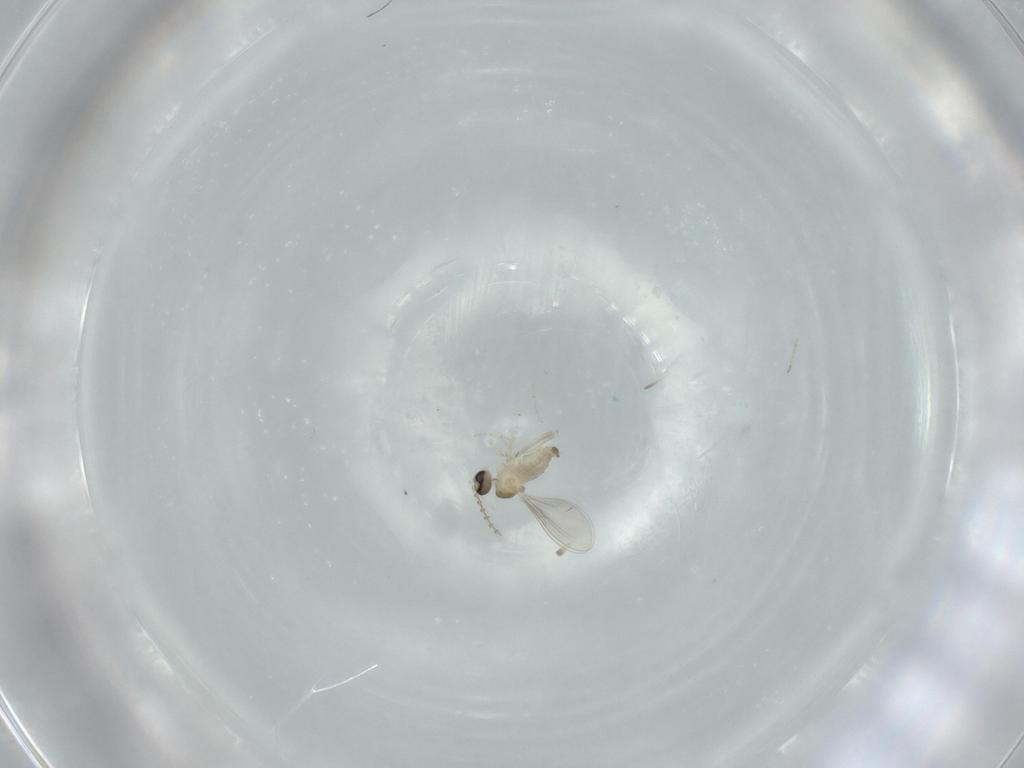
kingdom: Animalia
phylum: Arthropoda
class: Insecta
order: Diptera
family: Cecidomyiidae
